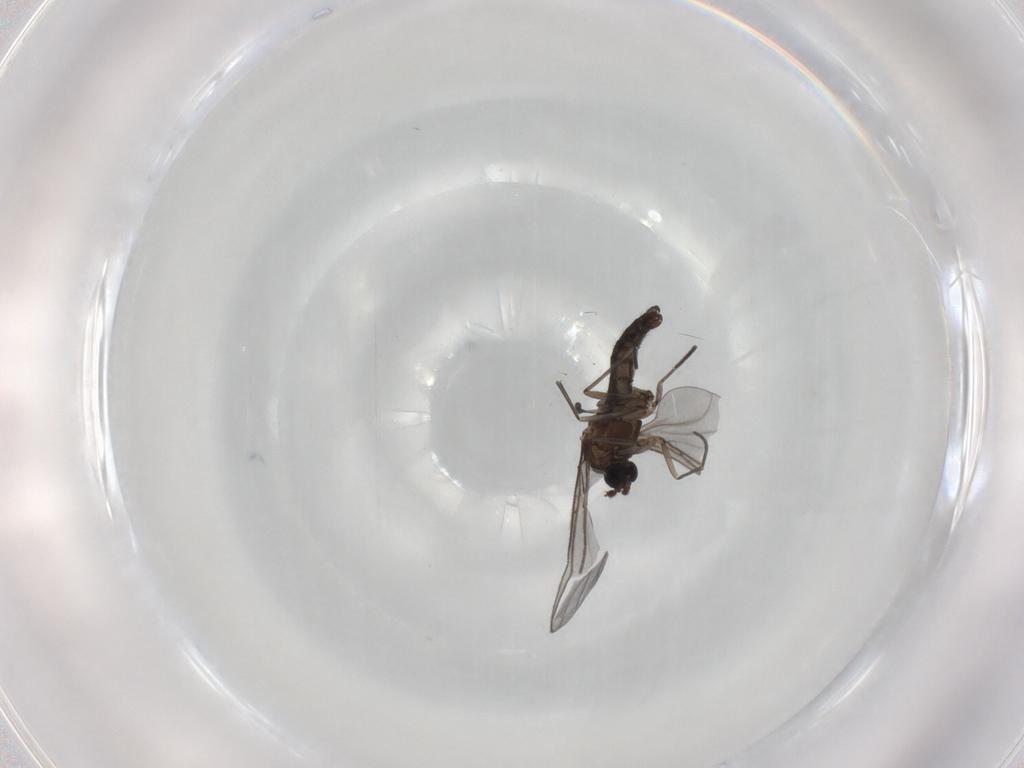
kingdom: Animalia
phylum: Arthropoda
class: Insecta
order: Diptera
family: Sciaridae
